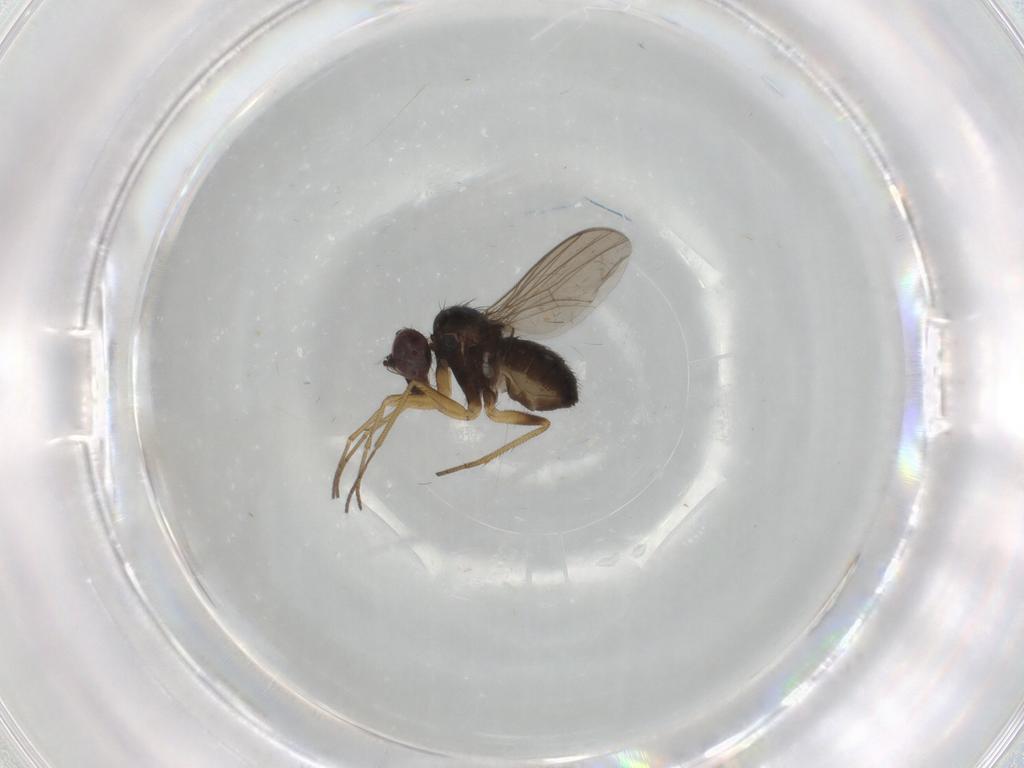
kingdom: Animalia
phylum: Arthropoda
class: Insecta
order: Diptera
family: Dolichopodidae
